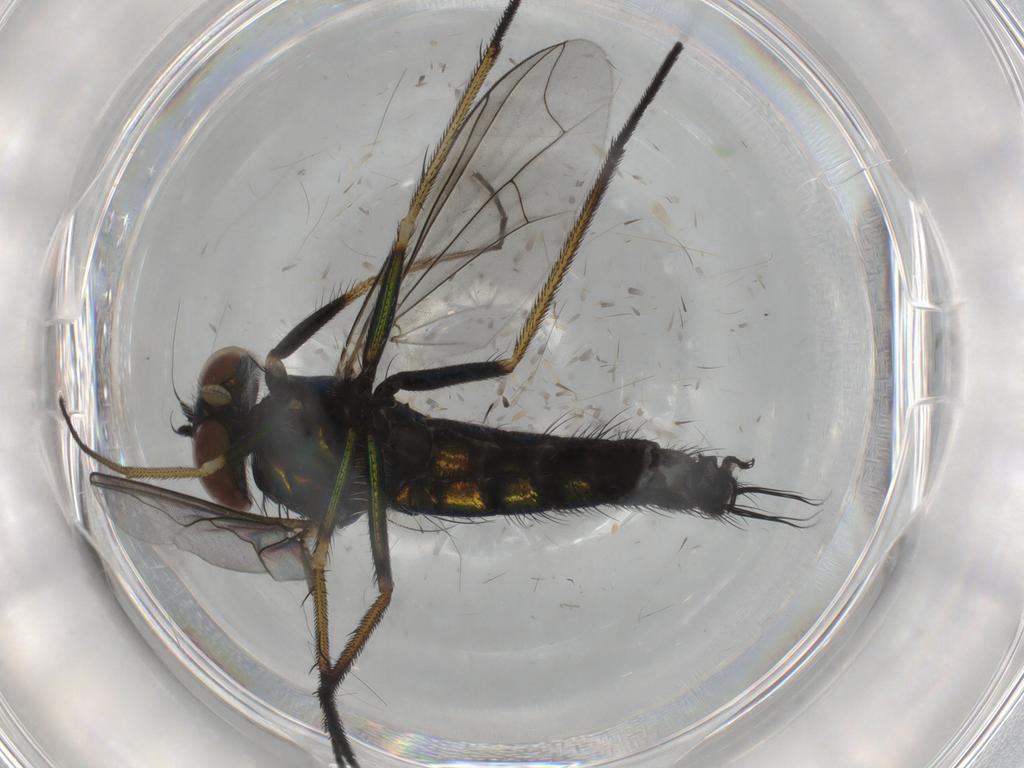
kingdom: Animalia
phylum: Arthropoda
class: Insecta
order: Diptera
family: Dolichopodidae
